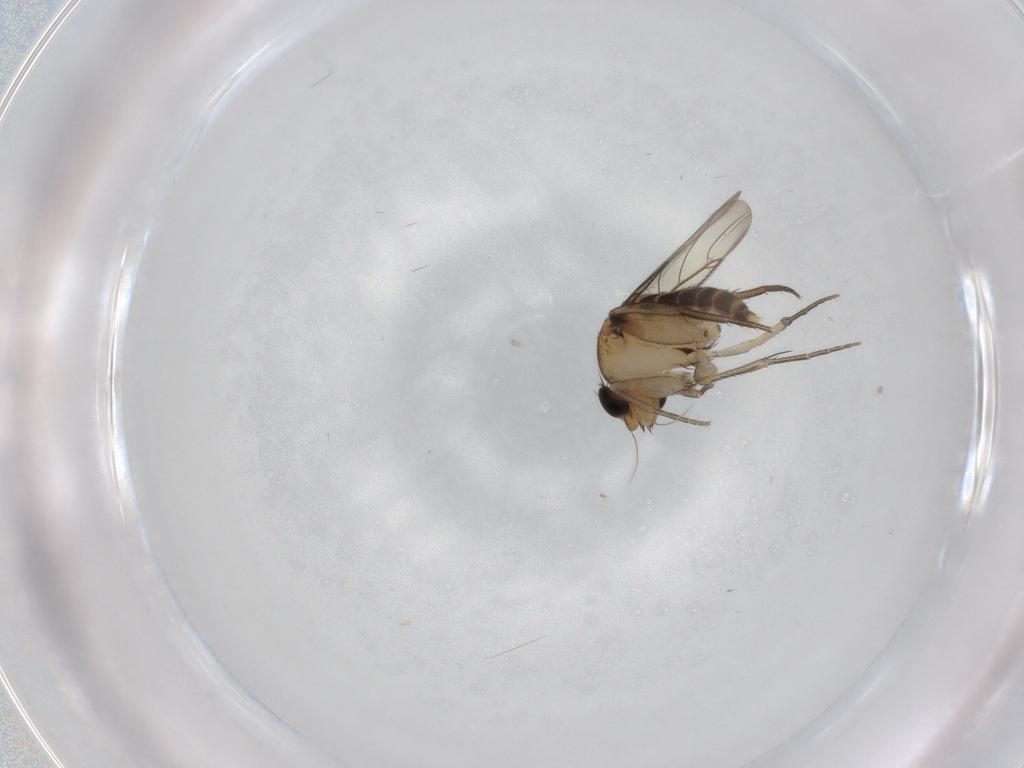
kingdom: Animalia
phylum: Arthropoda
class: Insecta
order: Diptera
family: Phoridae
